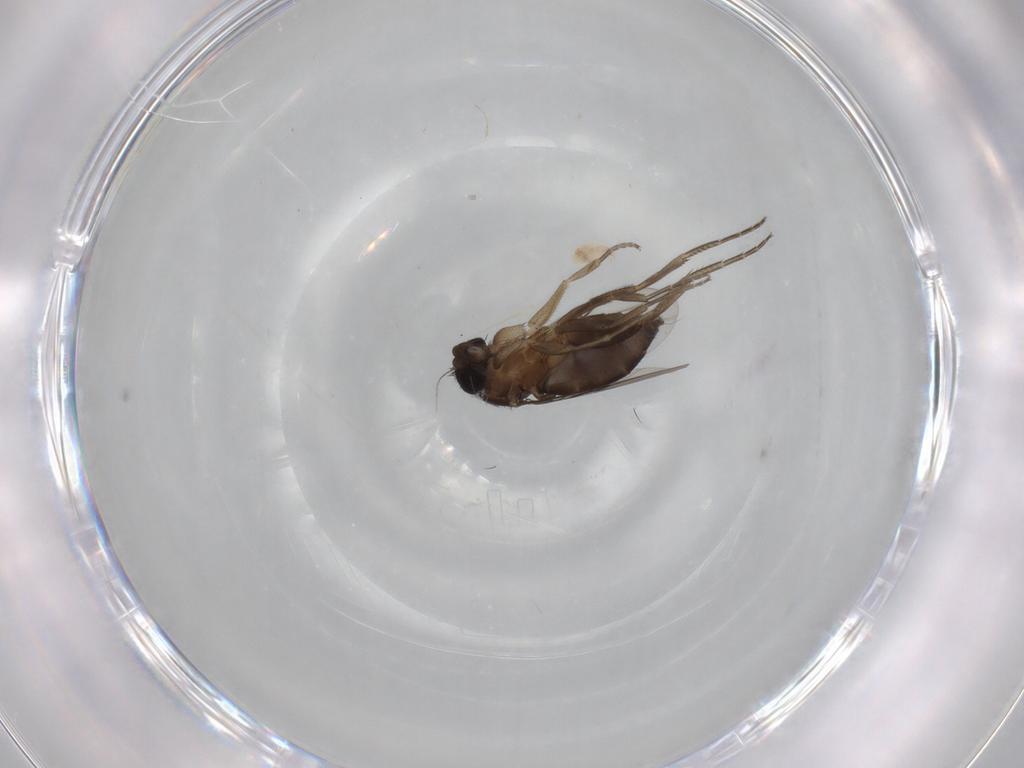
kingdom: Animalia
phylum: Arthropoda
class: Insecta
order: Diptera
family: Phoridae
